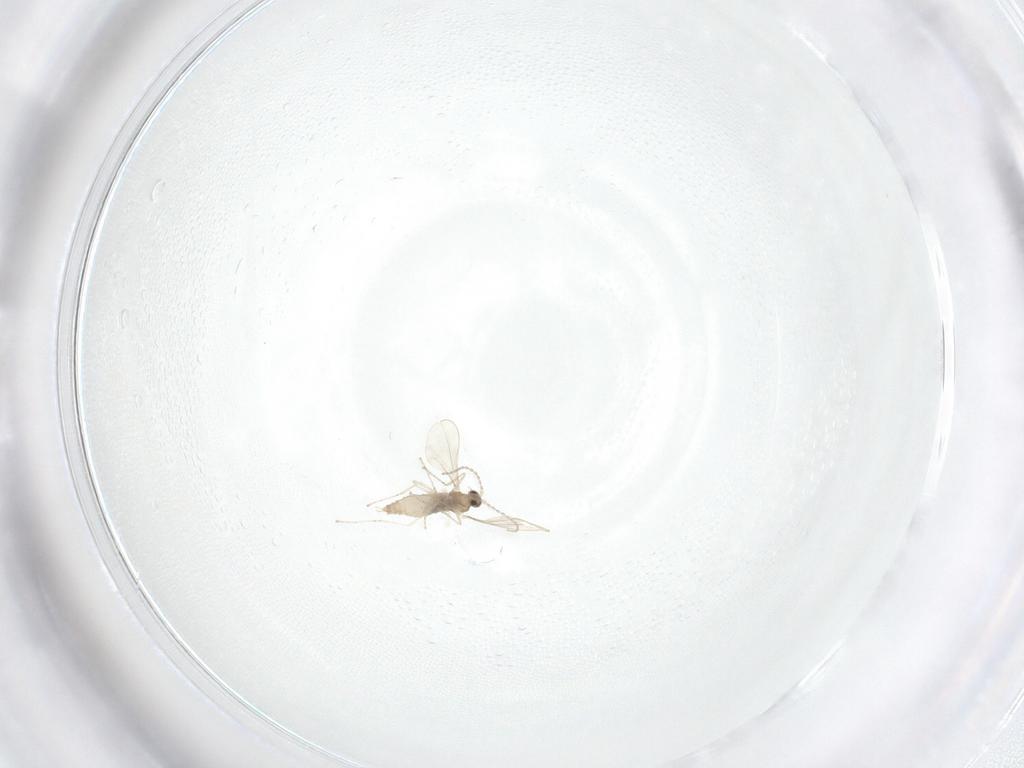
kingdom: Animalia
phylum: Arthropoda
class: Insecta
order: Diptera
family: Cecidomyiidae
